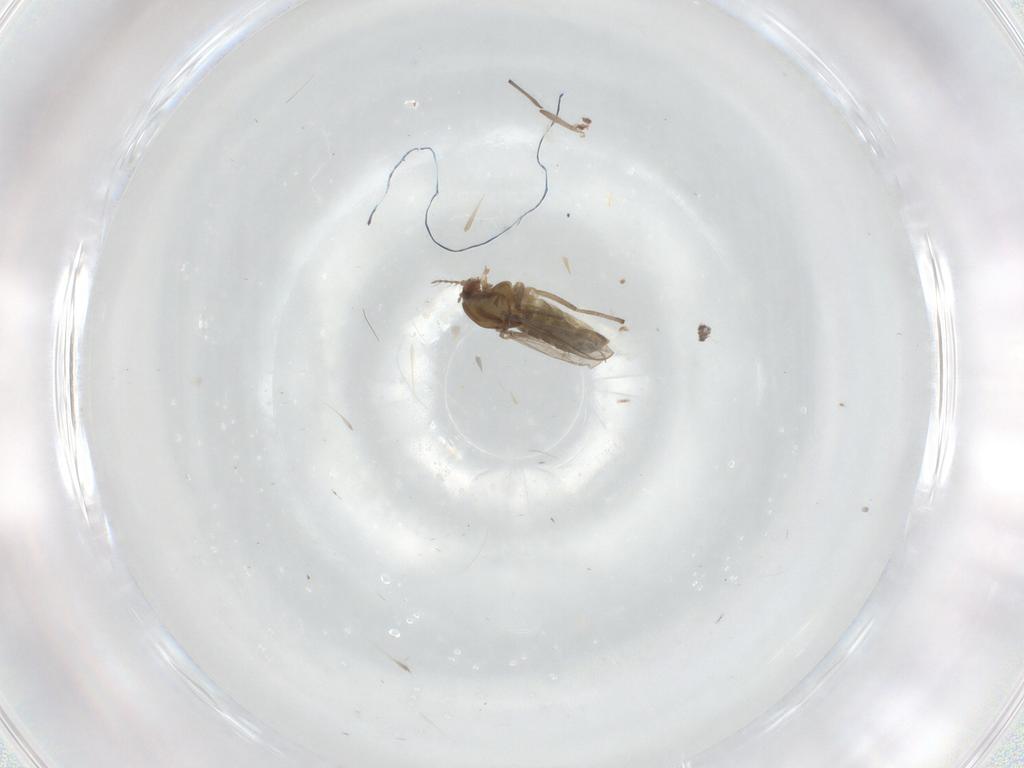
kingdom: Animalia
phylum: Arthropoda
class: Insecta
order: Diptera
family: Chironomidae
